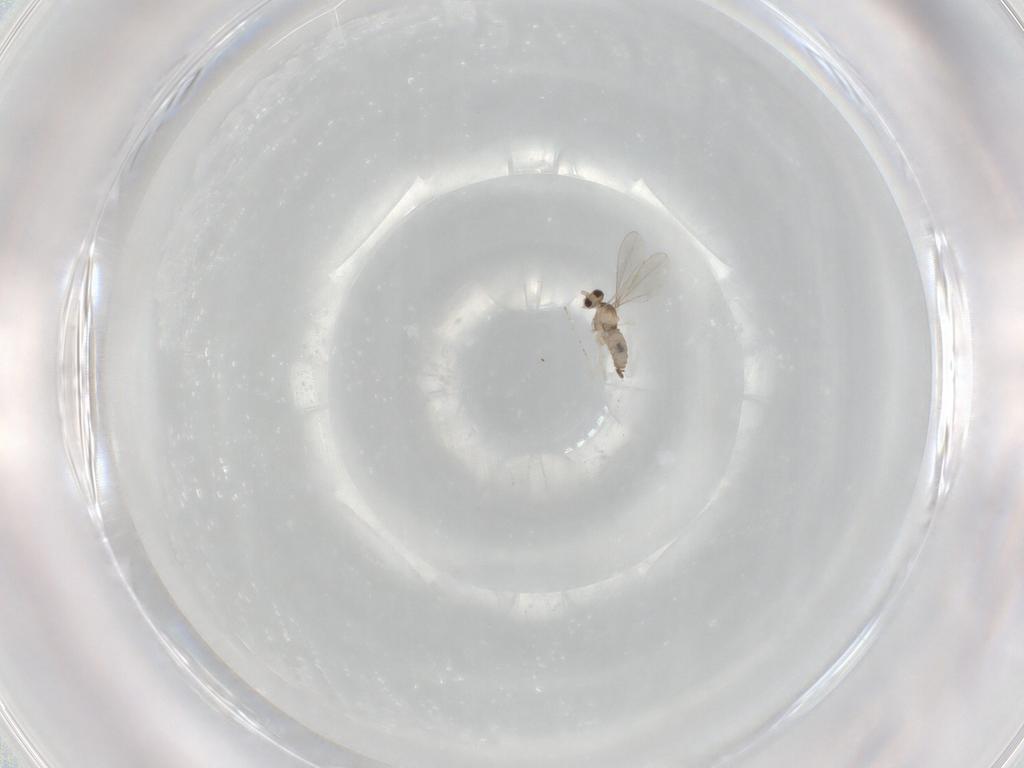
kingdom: Animalia
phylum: Arthropoda
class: Insecta
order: Diptera
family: Cecidomyiidae
